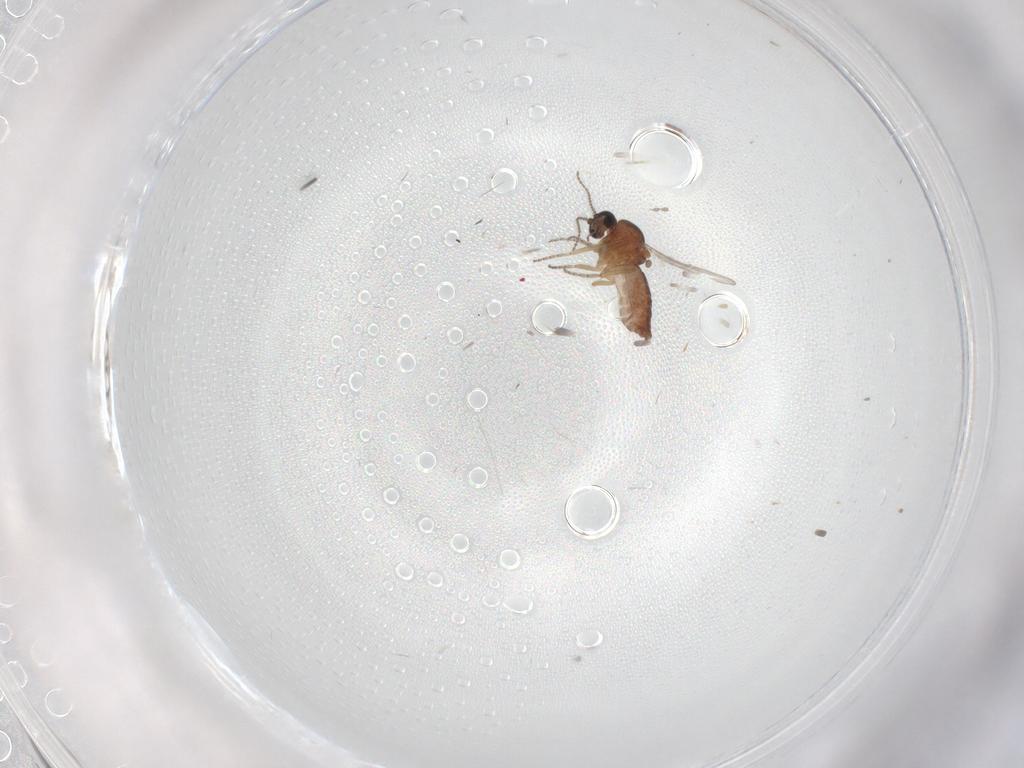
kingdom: Animalia
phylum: Arthropoda
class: Insecta
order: Diptera
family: Ceratopogonidae
